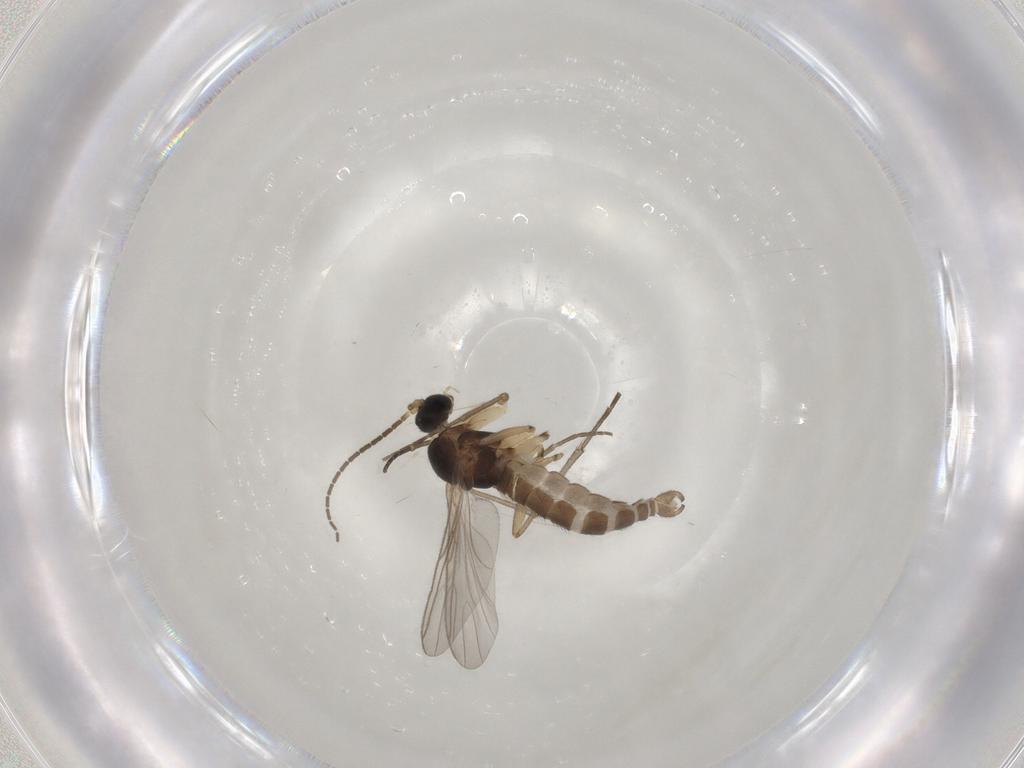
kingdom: Animalia
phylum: Arthropoda
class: Insecta
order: Diptera
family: Sciaridae
